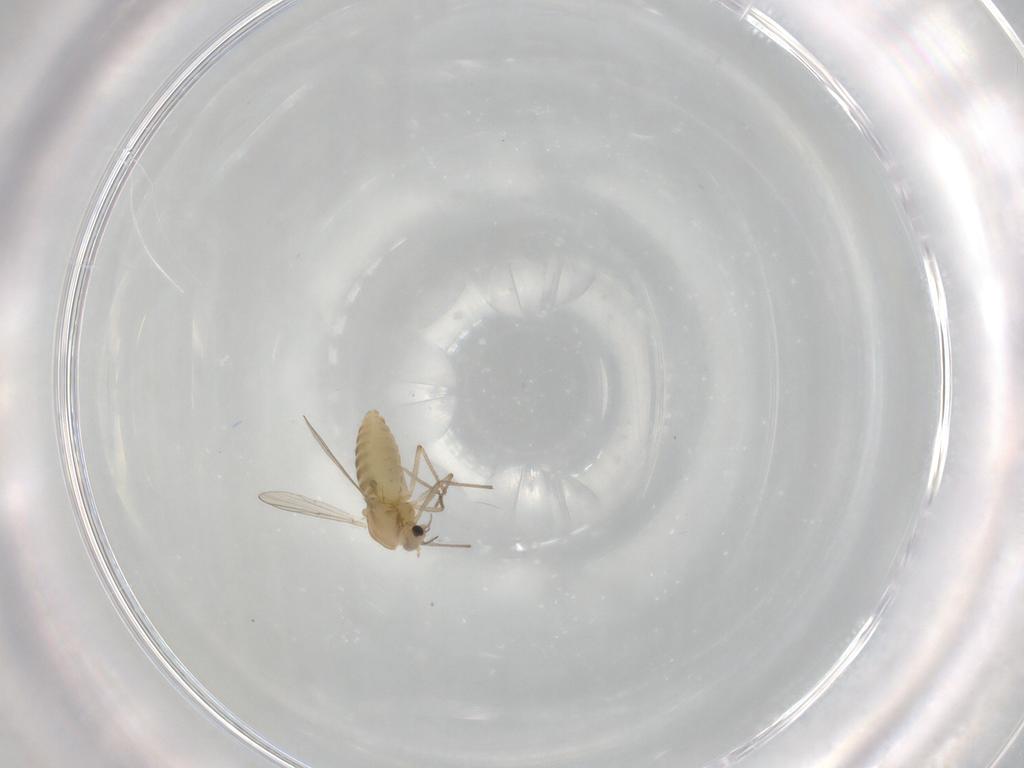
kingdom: Animalia
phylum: Arthropoda
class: Insecta
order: Diptera
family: Chironomidae
